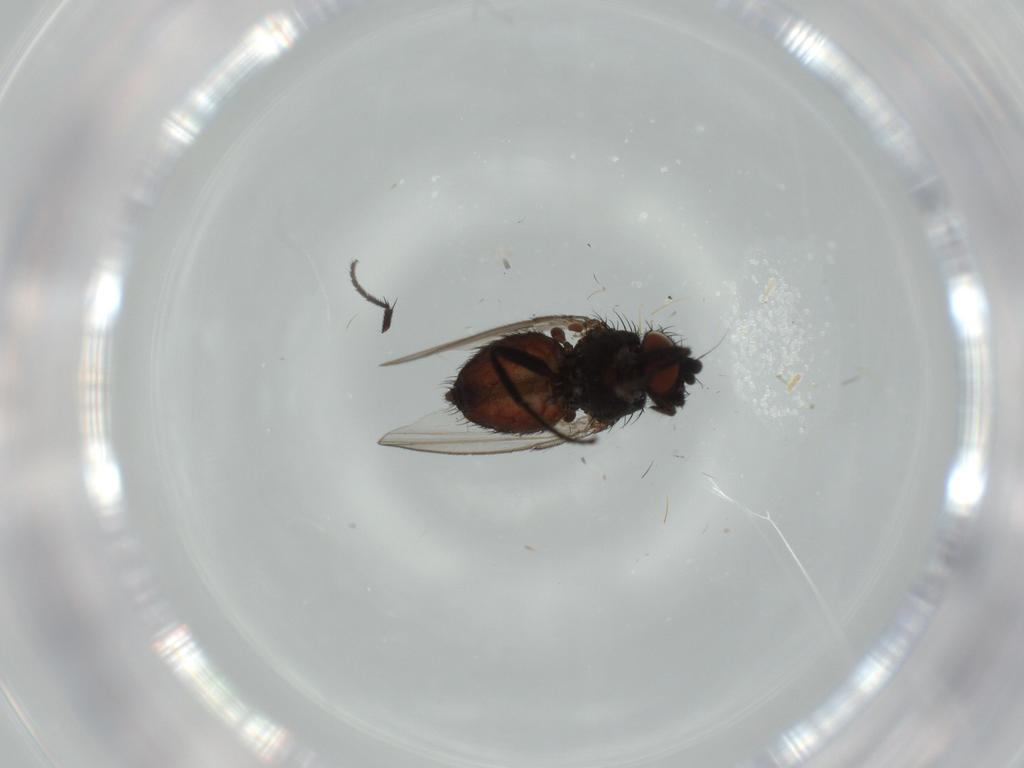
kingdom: Animalia
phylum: Arthropoda
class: Insecta
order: Diptera
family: Milichiidae
